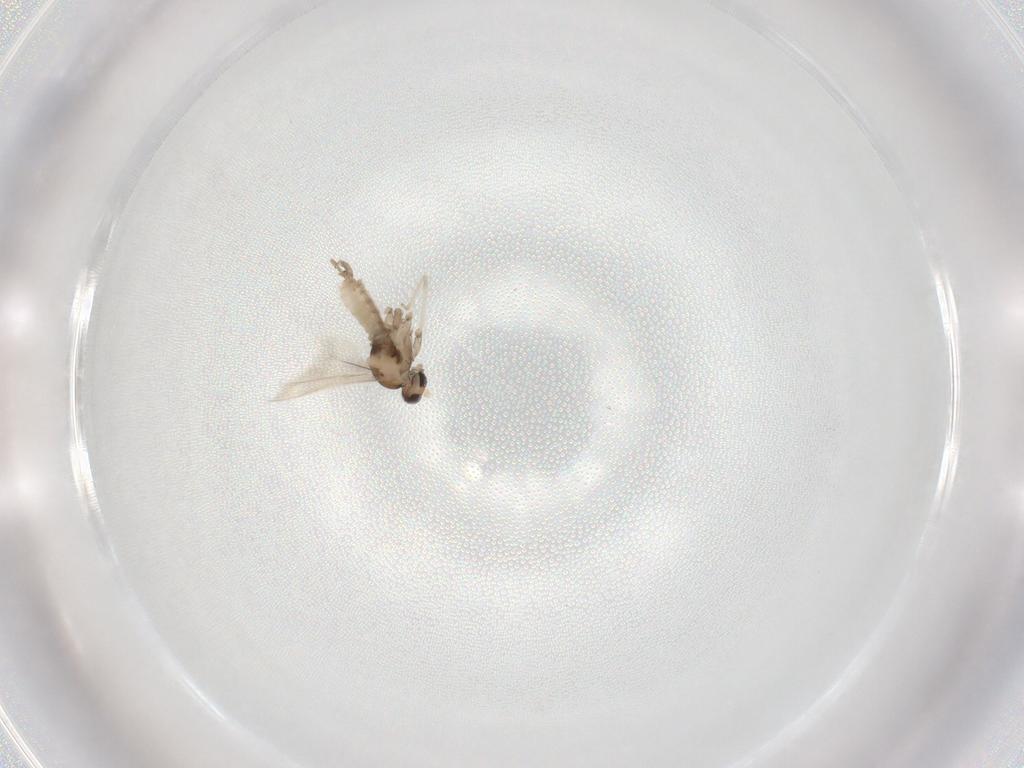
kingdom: Animalia
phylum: Arthropoda
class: Insecta
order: Diptera
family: Cecidomyiidae
